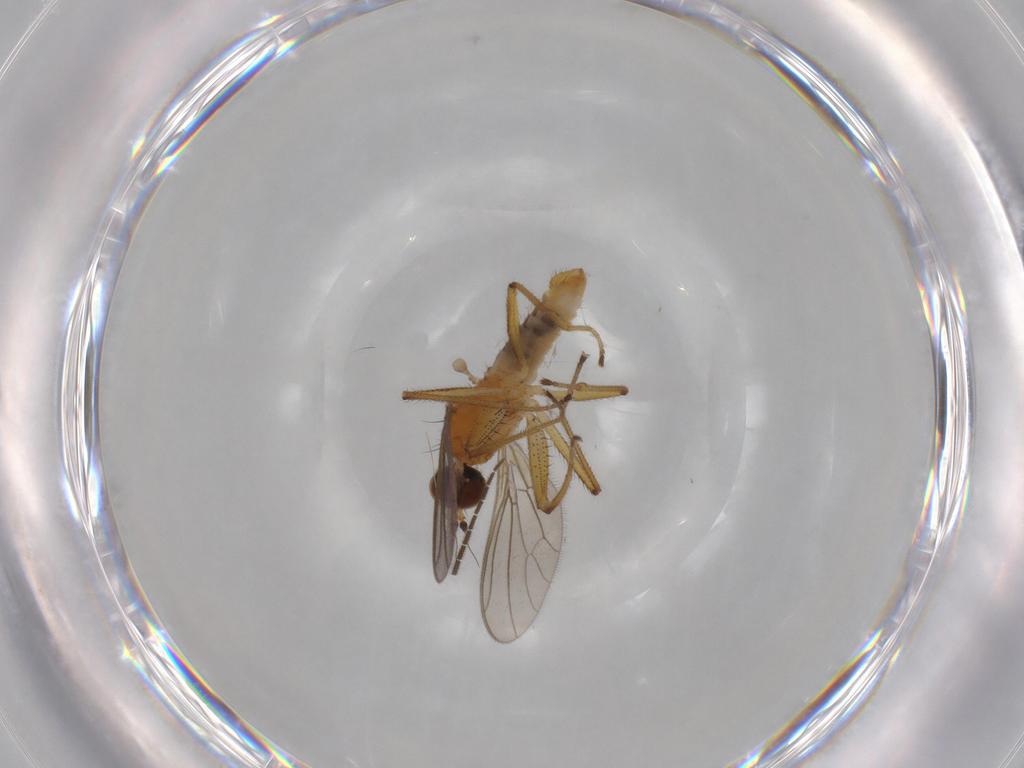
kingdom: Animalia
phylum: Arthropoda
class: Insecta
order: Diptera
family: Empididae
